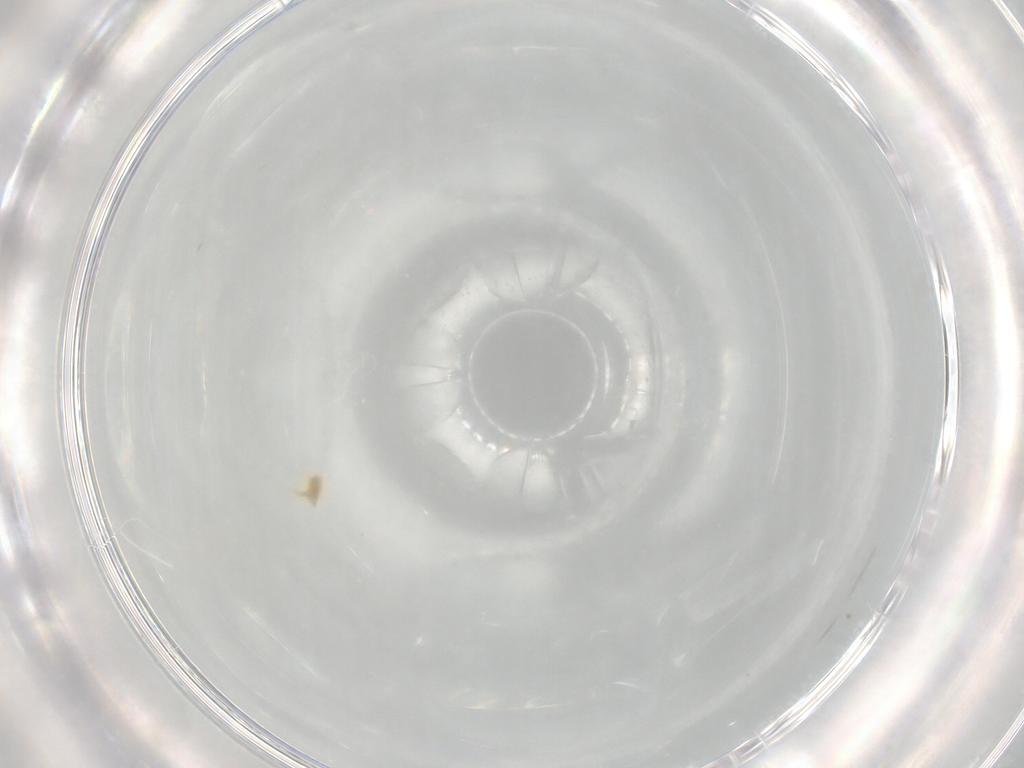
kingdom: Animalia
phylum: Arthropoda
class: Arachnida
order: Trombidiformes
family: Tetranychidae
